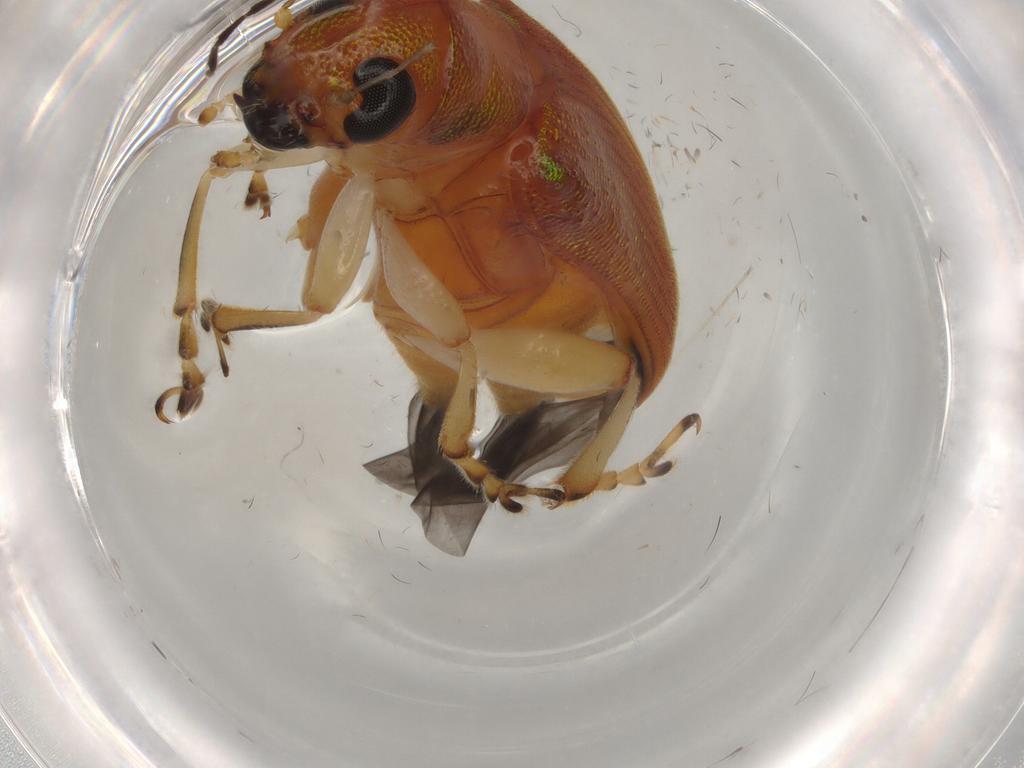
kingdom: Animalia
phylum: Arthropoda
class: Insecta
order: Coleoptera
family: Chrysomelidae
